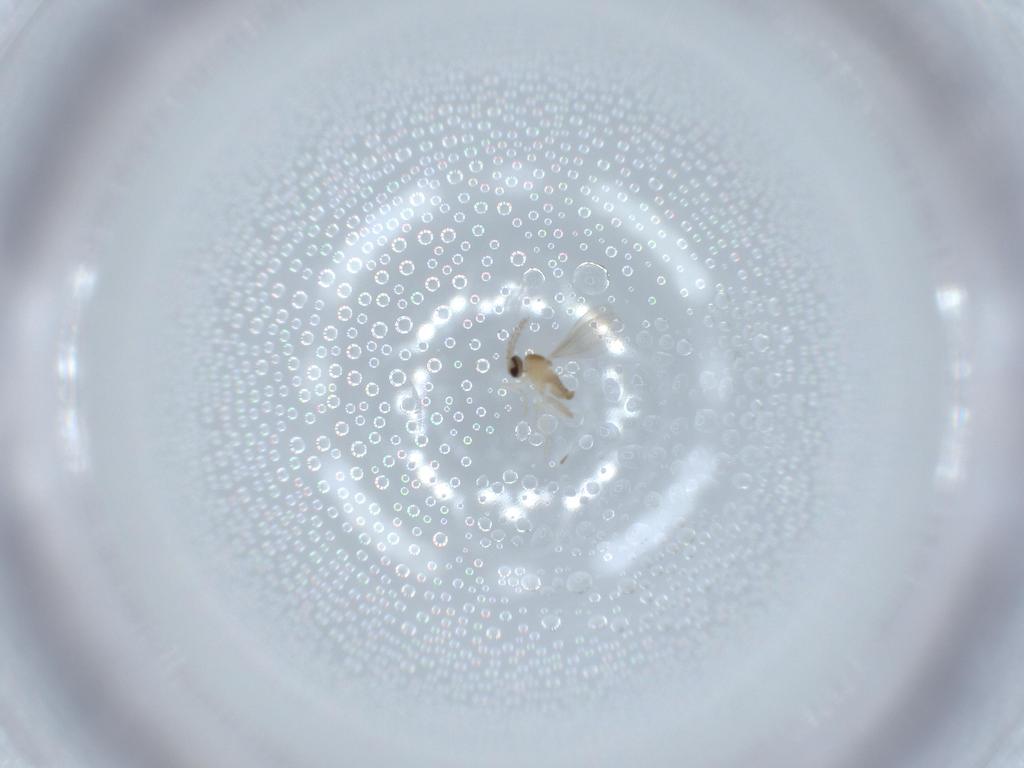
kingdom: Animalia
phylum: Arthropoda
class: Insecta
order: Diptera
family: Cecidomyiidae
